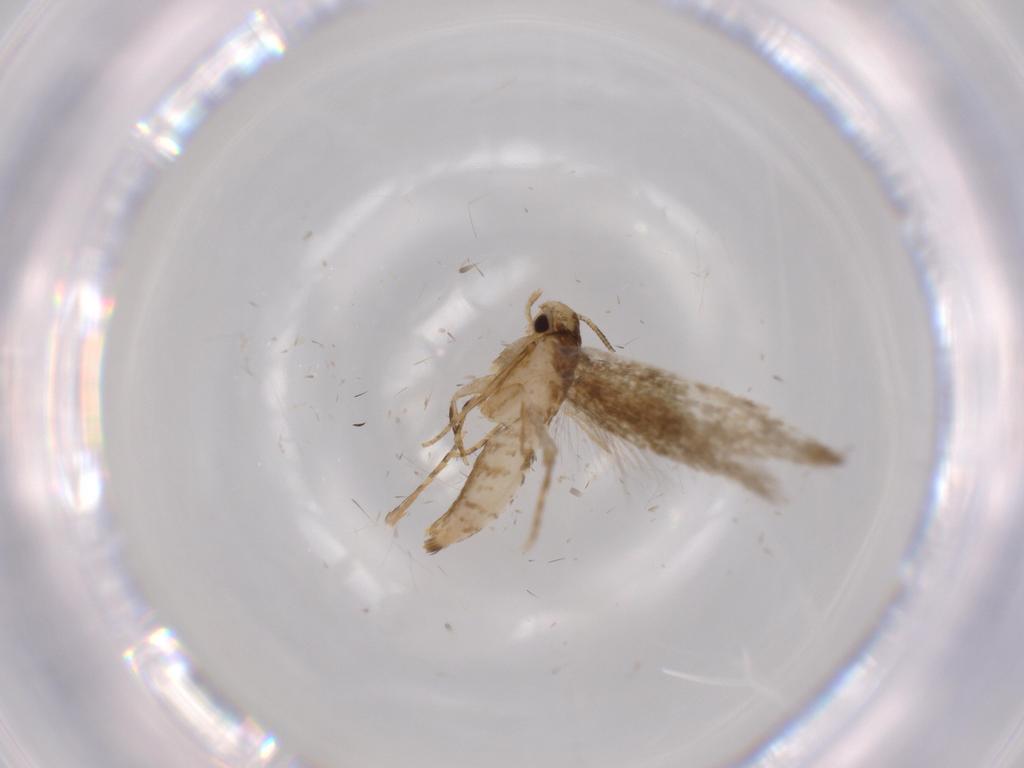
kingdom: Animalia
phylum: Arthropoda
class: Insecta
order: Lepidoptera
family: Tineidae
